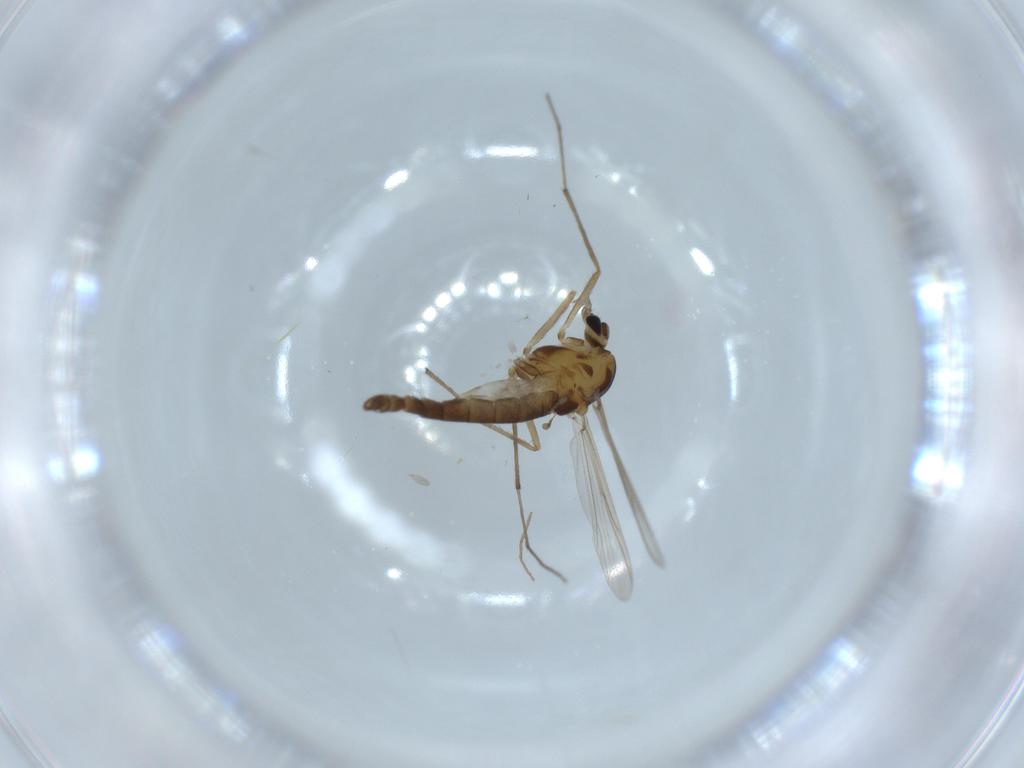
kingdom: Animalia
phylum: Arthropoda
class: Insecta
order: Diptera
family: Chironomidae
